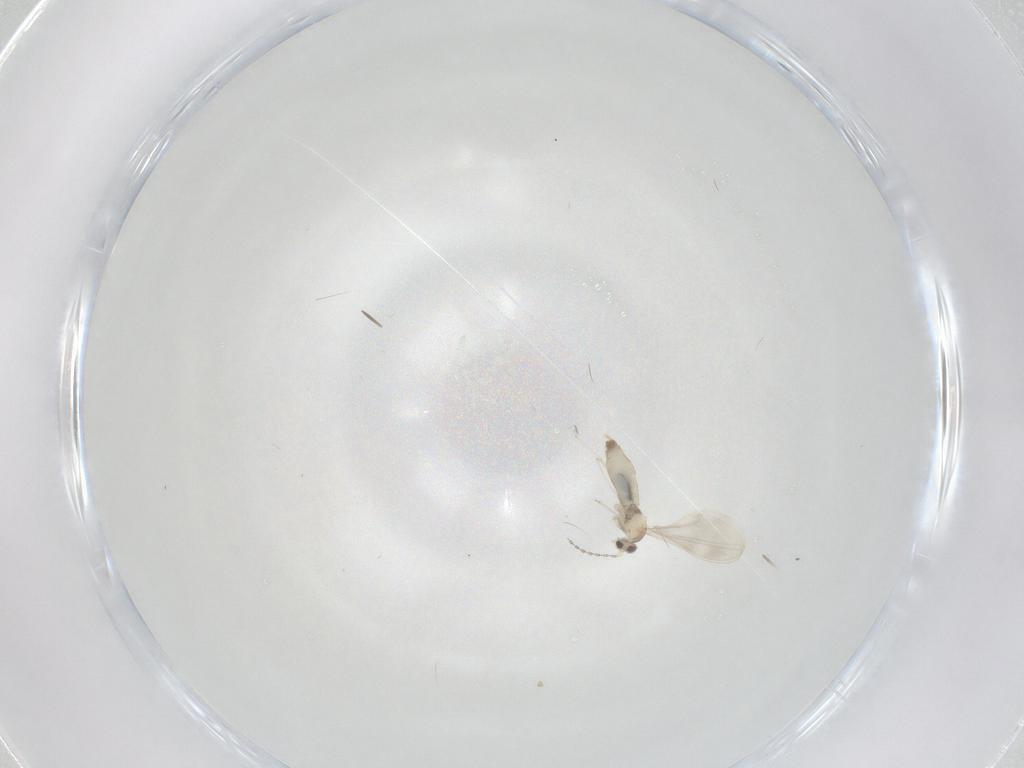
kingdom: Animalia
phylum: Arthropoda
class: Insecta
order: Diptera
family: Cecidomyiidae
